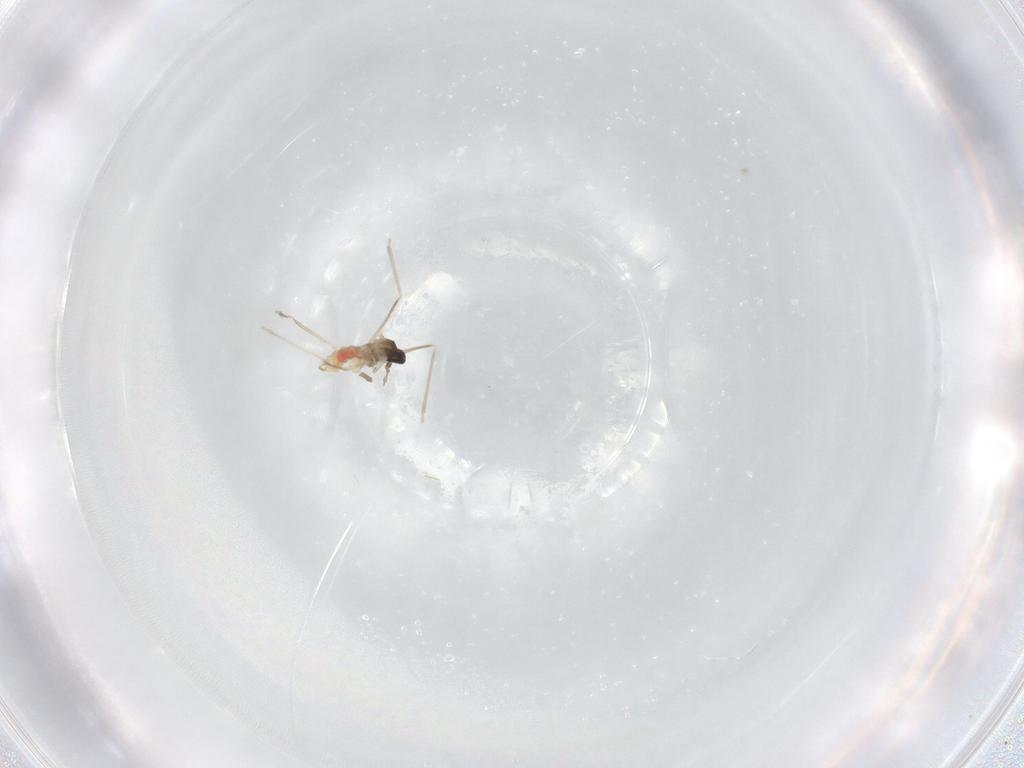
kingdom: Animalia
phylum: Arthropoda
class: Insecta
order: Diptera
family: Cecidomyiidae
